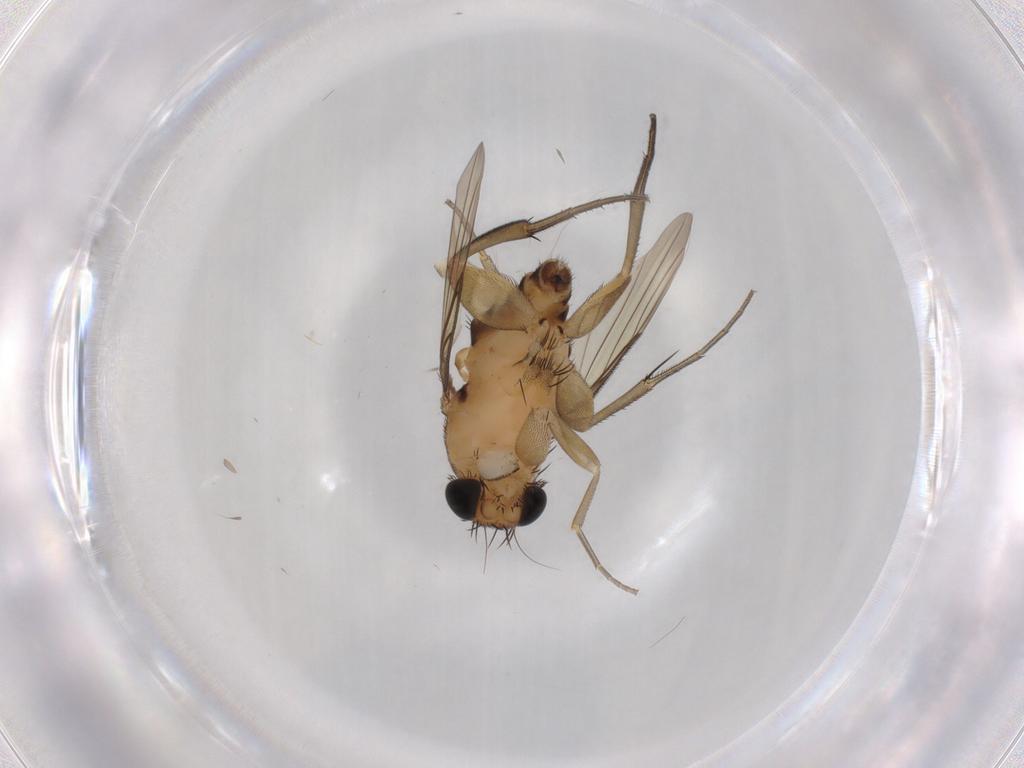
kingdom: Animalia
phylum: Arthropoda
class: Insecta
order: Diptera
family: Phoridae
